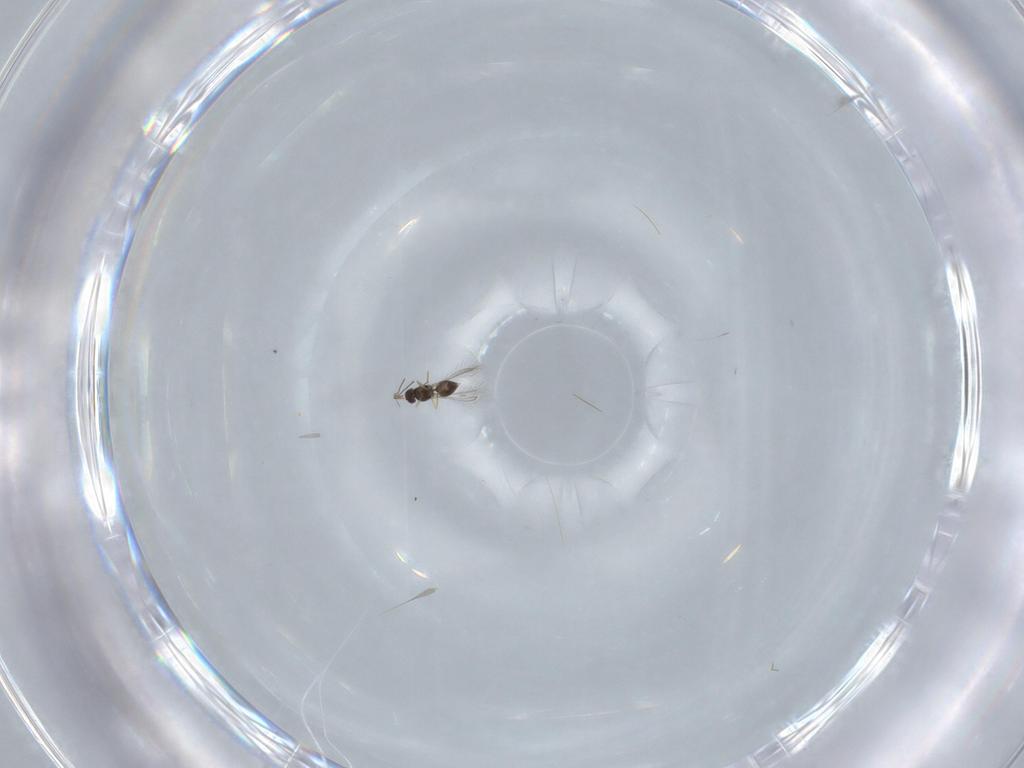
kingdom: Animalia
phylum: Arthropoda
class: Insecta
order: Hymenoptera
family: Mymaridae
